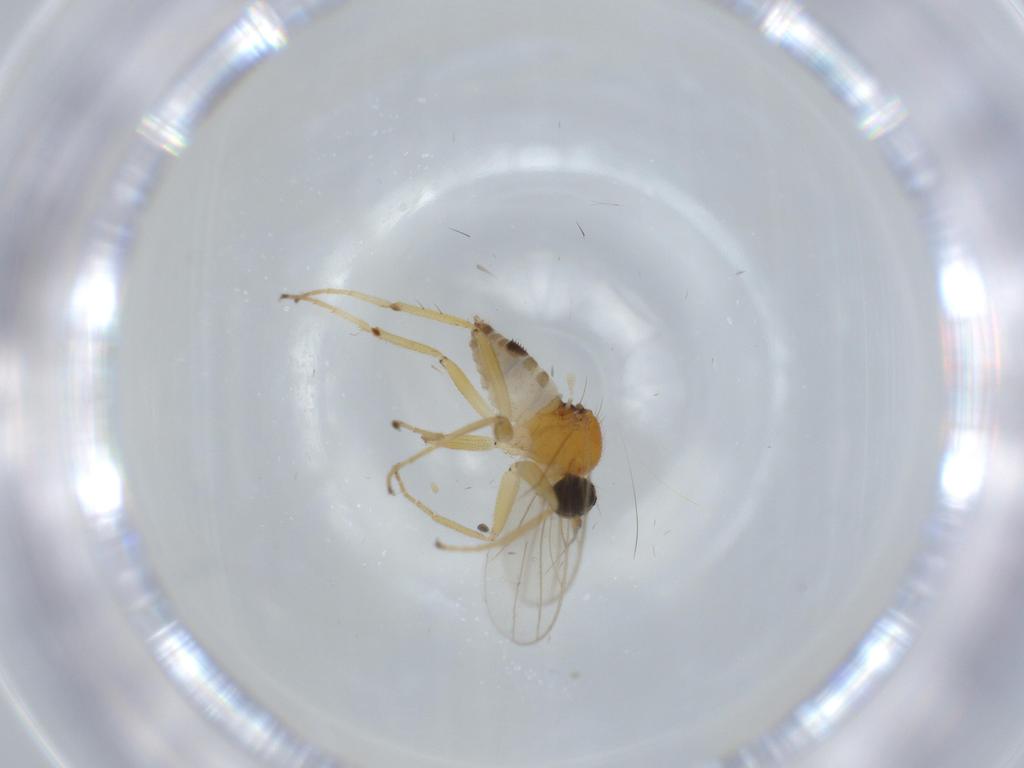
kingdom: Animalia
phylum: Arthropoda
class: Insecta
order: Diptera
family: Hybotidae
